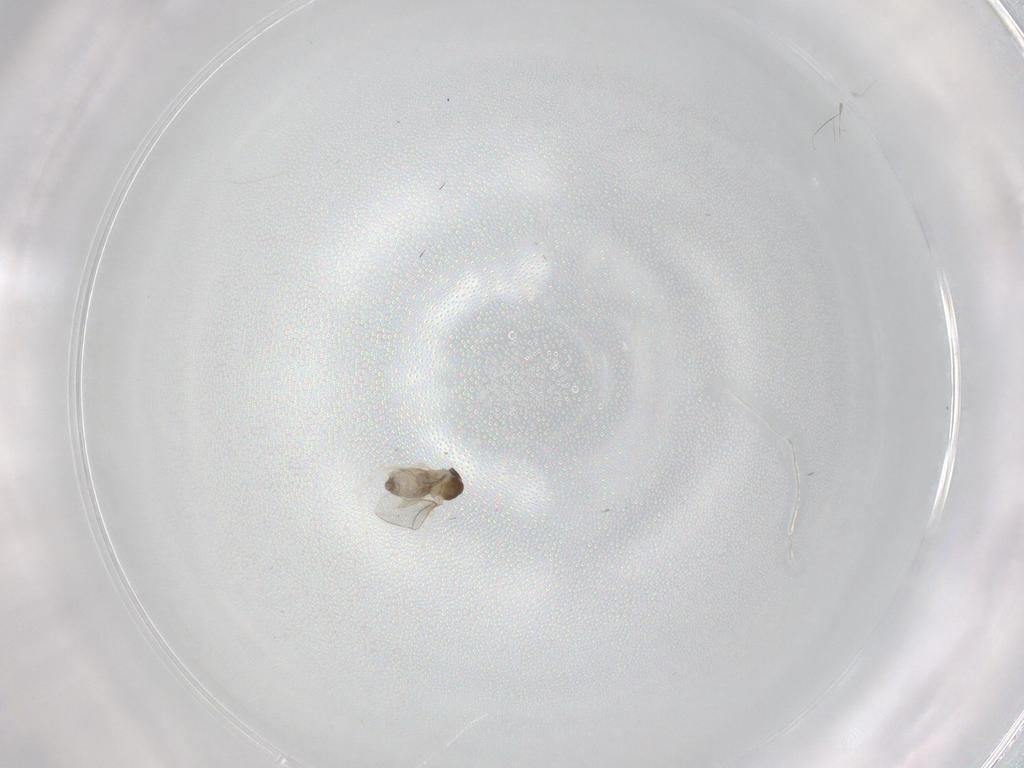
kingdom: Animalia
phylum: Arthropoda
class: Insecta
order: Diptera
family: Cecidomyiidae
